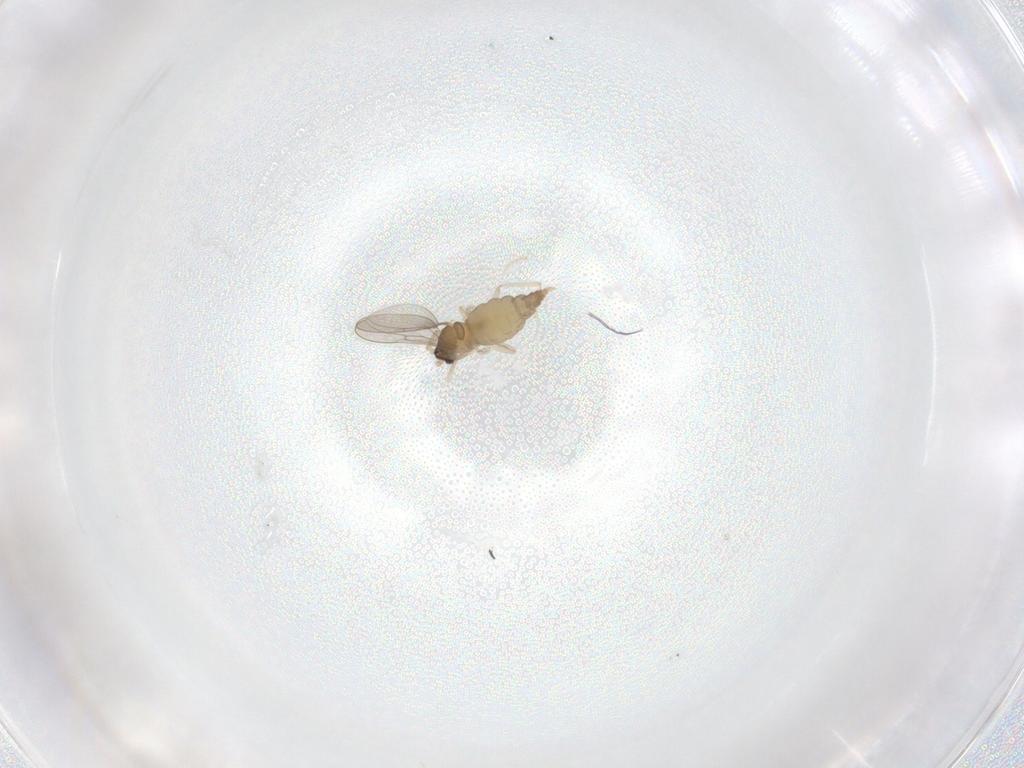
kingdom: Animalia
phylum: Arthropoda
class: Insecta
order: Diptera
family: Cecidomyiidae
